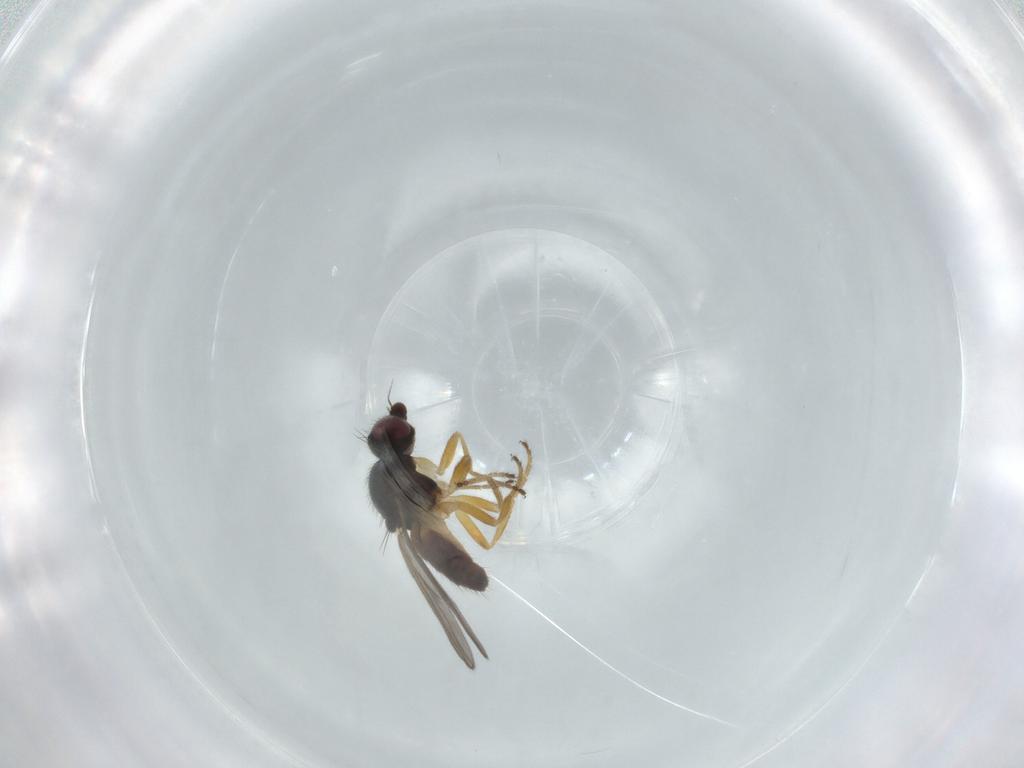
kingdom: Animalia
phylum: Arthropoda
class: Insecta
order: Diptera
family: Chloropidae
